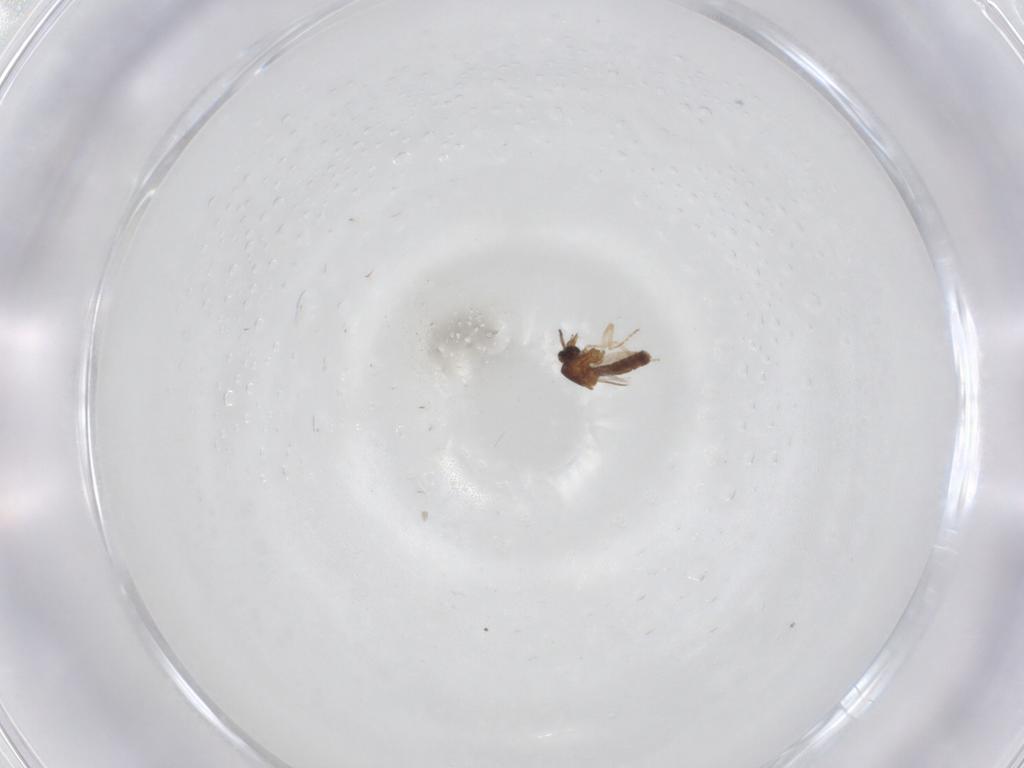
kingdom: Animalia
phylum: Arthropoda
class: Insecta
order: Diptera
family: Ceratopogonidae
